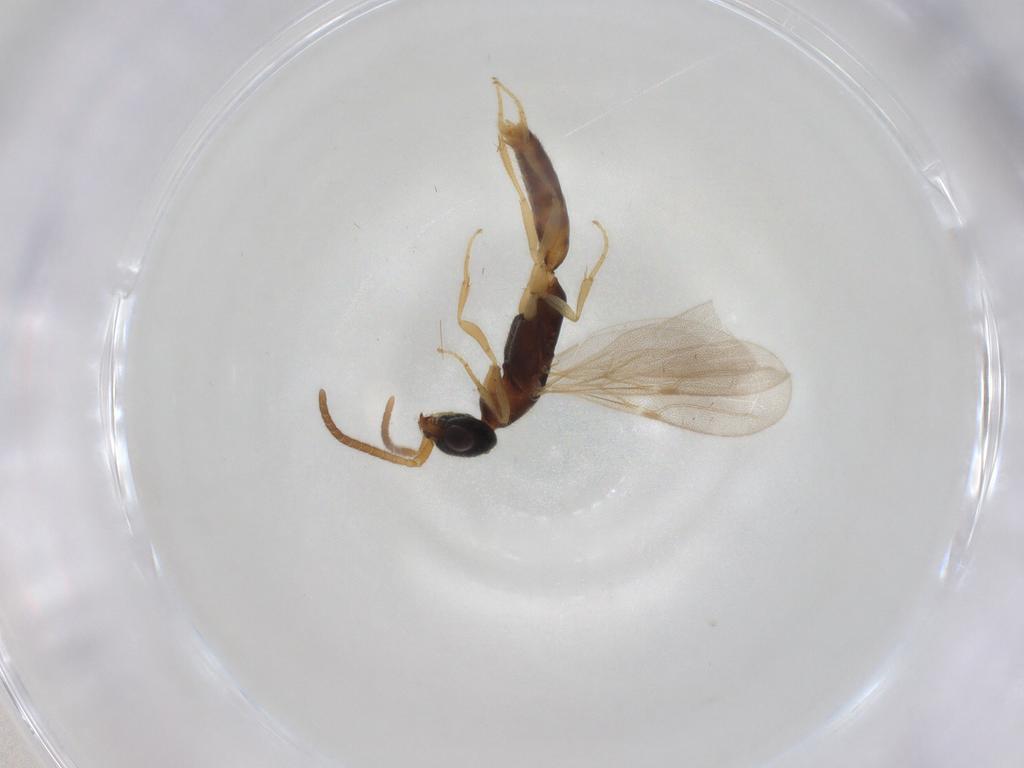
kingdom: Animalia
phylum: Arthropoda
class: Insecta
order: Hymenoptera
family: Bethylidae
